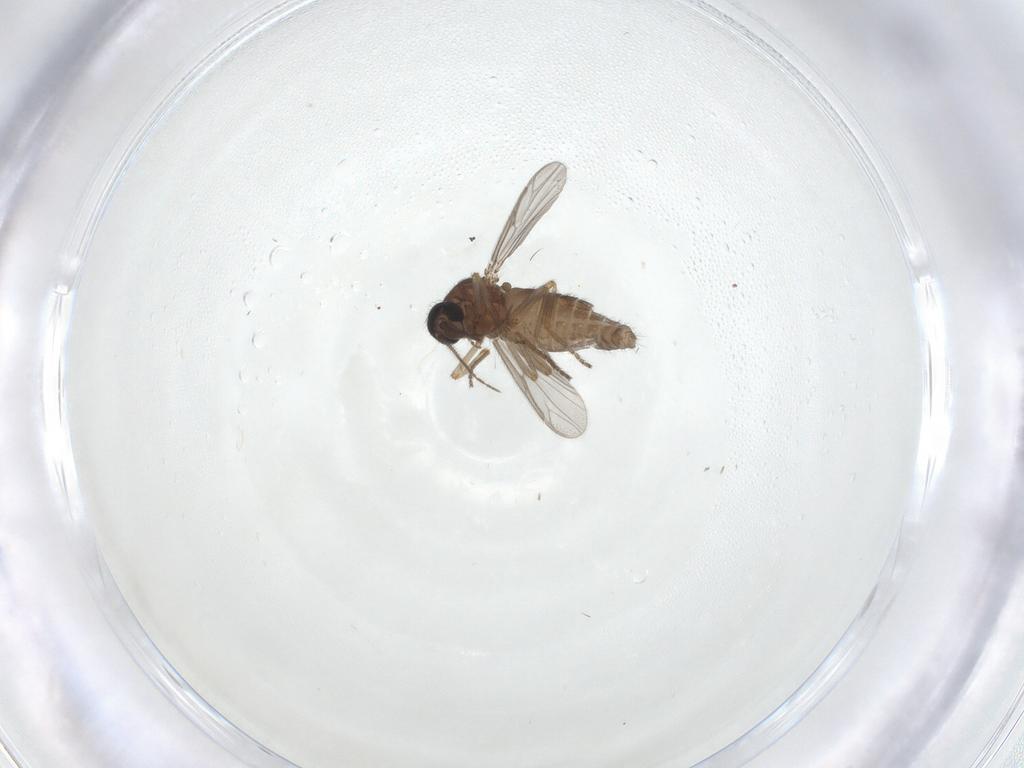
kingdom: Animalia
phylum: Arthropoda
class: Insecta
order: Diptera
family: Ceratopogonidae
